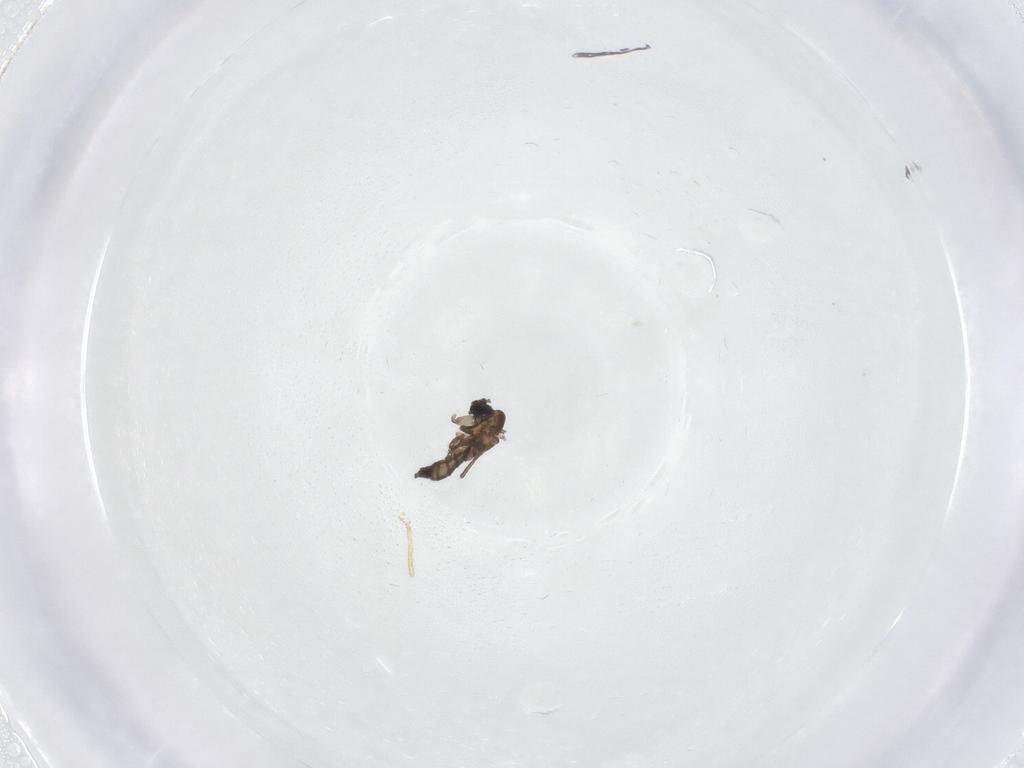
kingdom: Animalia
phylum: Arthropoda
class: Insecta
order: Diptera
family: Sciaridae
